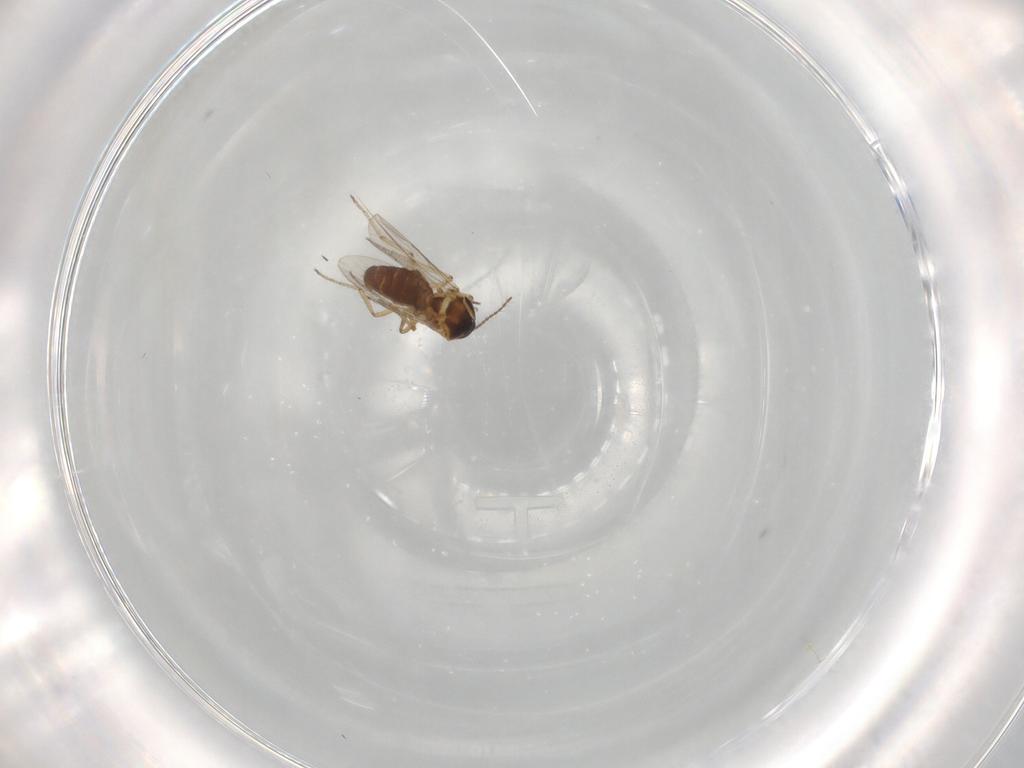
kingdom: Animalia
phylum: Arthropoda
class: Insecta
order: Diptera
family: Ceratopogonidae
